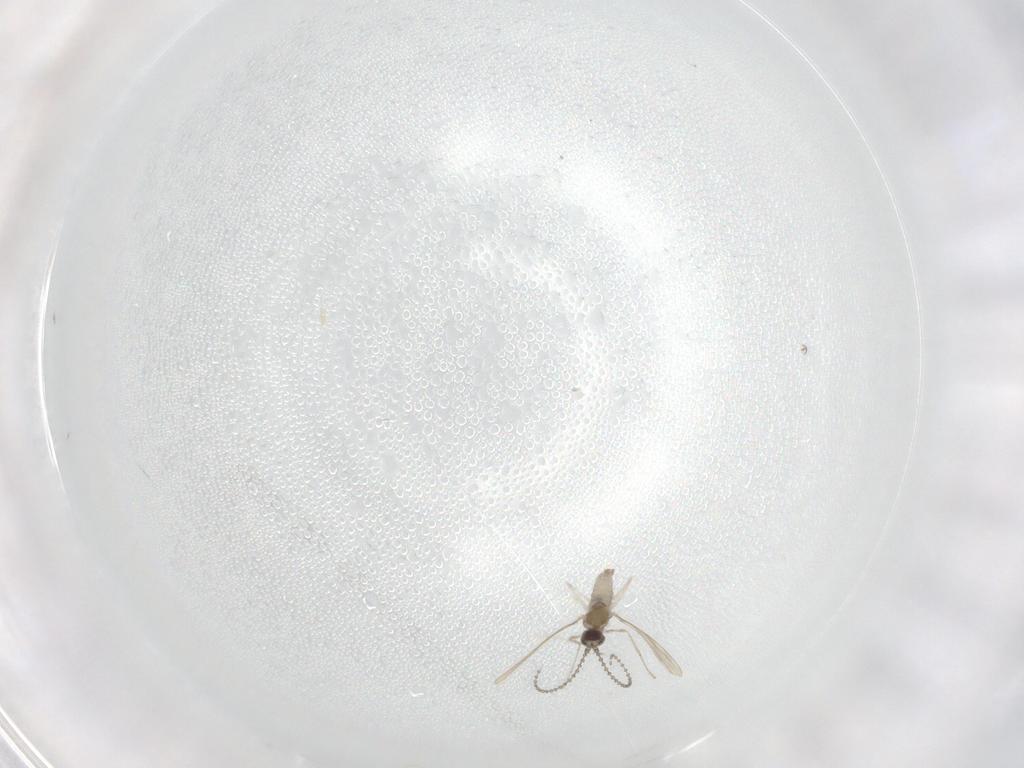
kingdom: Animalia
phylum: Arthropoda
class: Insecta
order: Diptera
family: Cecidomyiidae
